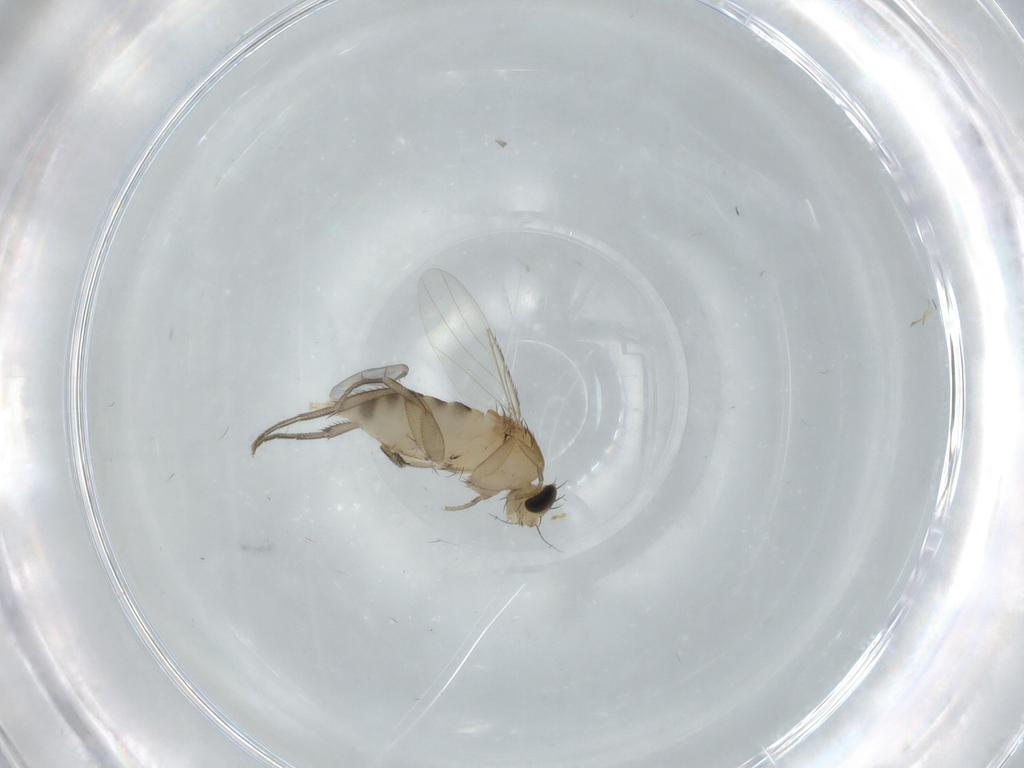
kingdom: Animalia
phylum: Arthropoda
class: Insecta
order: Diptera
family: Phoridae
